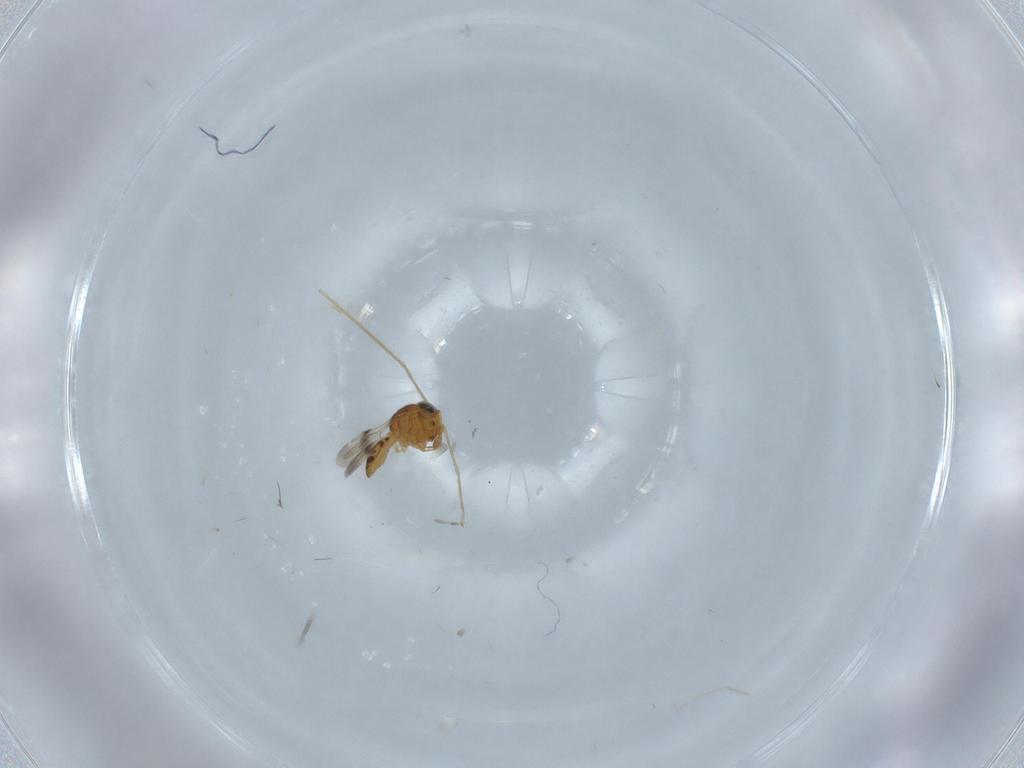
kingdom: Animalia
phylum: Arthropoda
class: Insecta
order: Hymenoptera
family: Scelionidae
